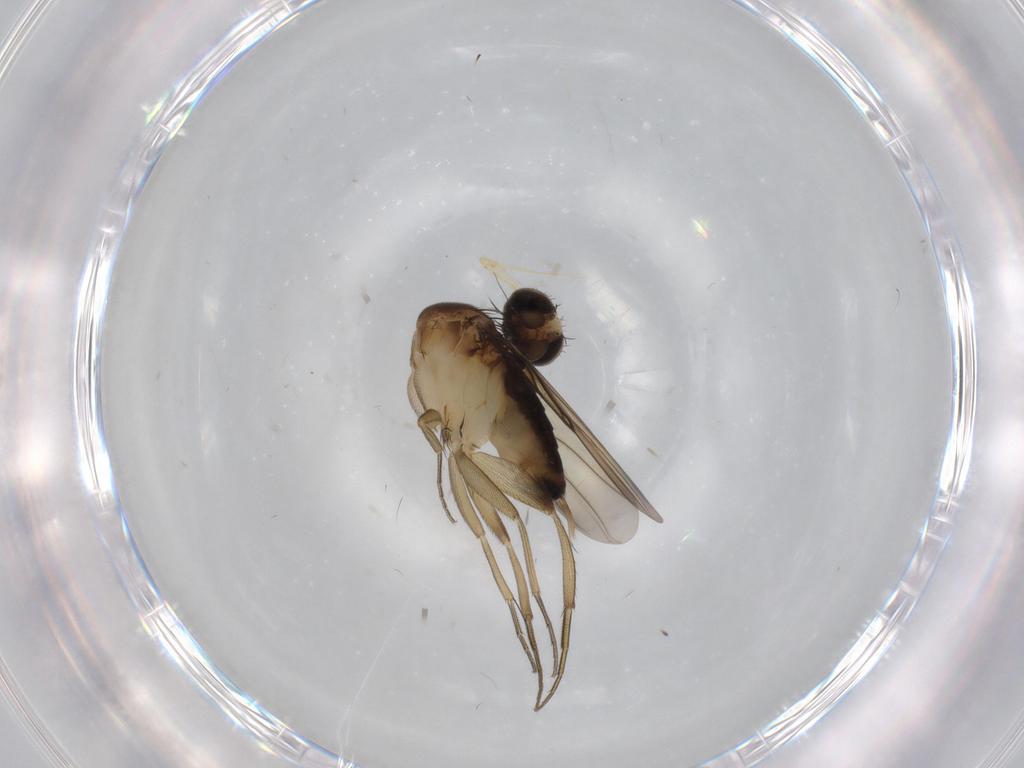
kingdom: Animalia
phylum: Arthropoda
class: Insecta
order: Diptera
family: Phoridae
